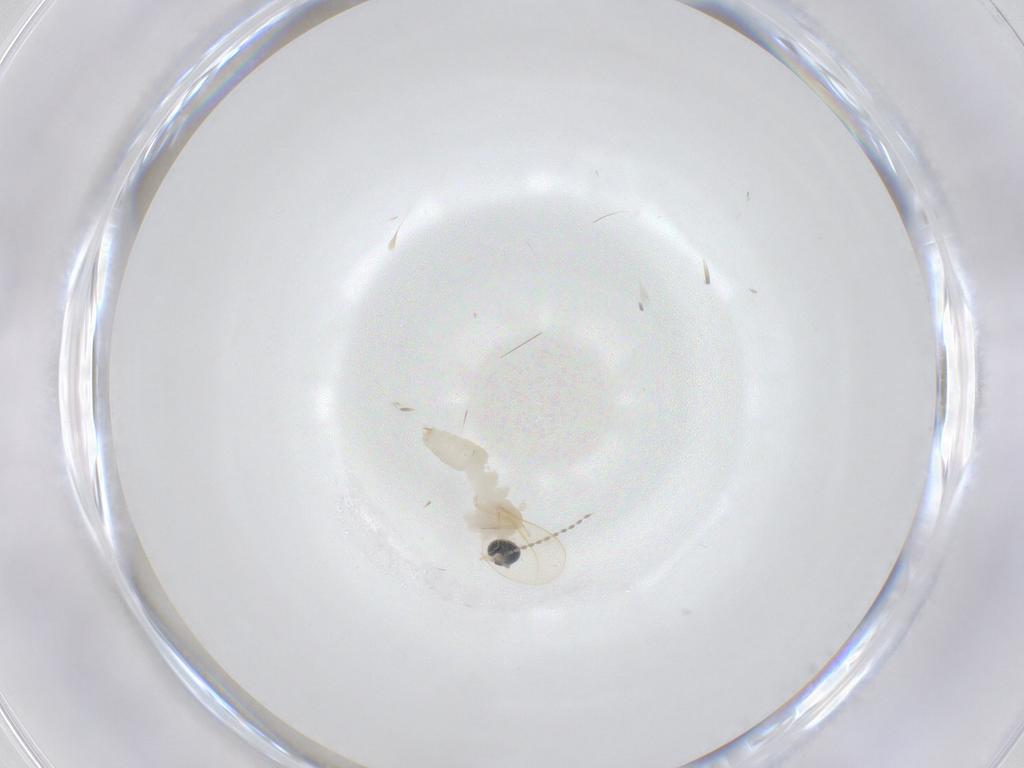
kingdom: Animalia
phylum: Arthropoda
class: Insecta
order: Diptera
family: Cecidomyiidae
